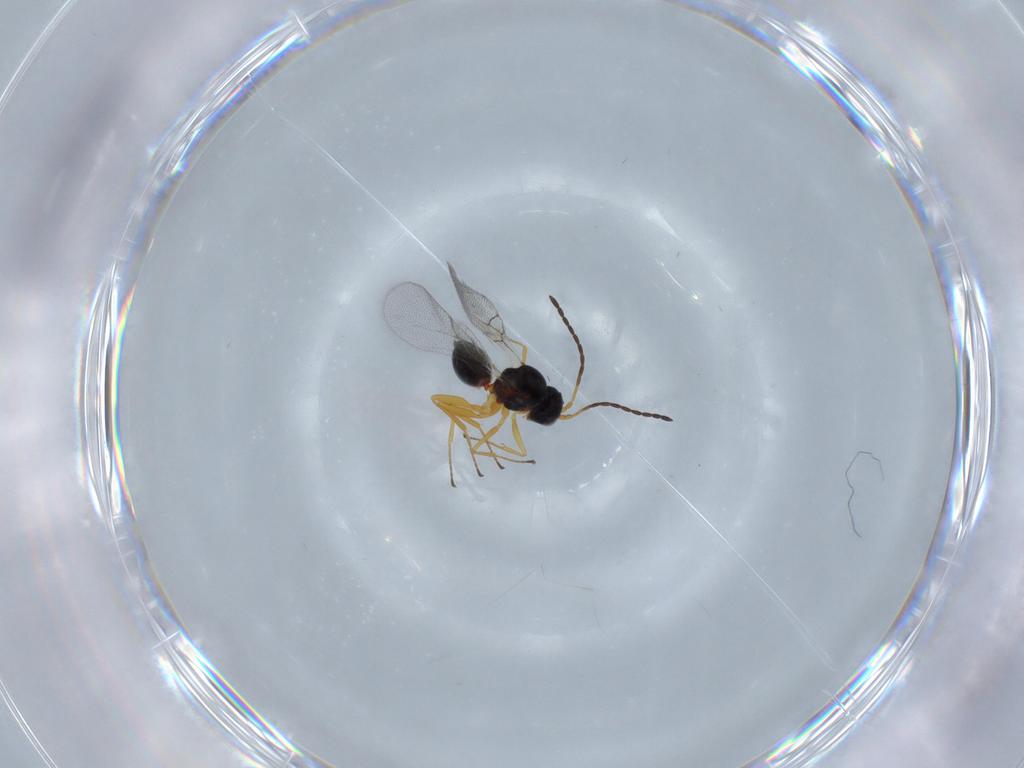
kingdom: Animalia
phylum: Arthropoda
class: Insecta
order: Hymenoptera
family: Figitidae
